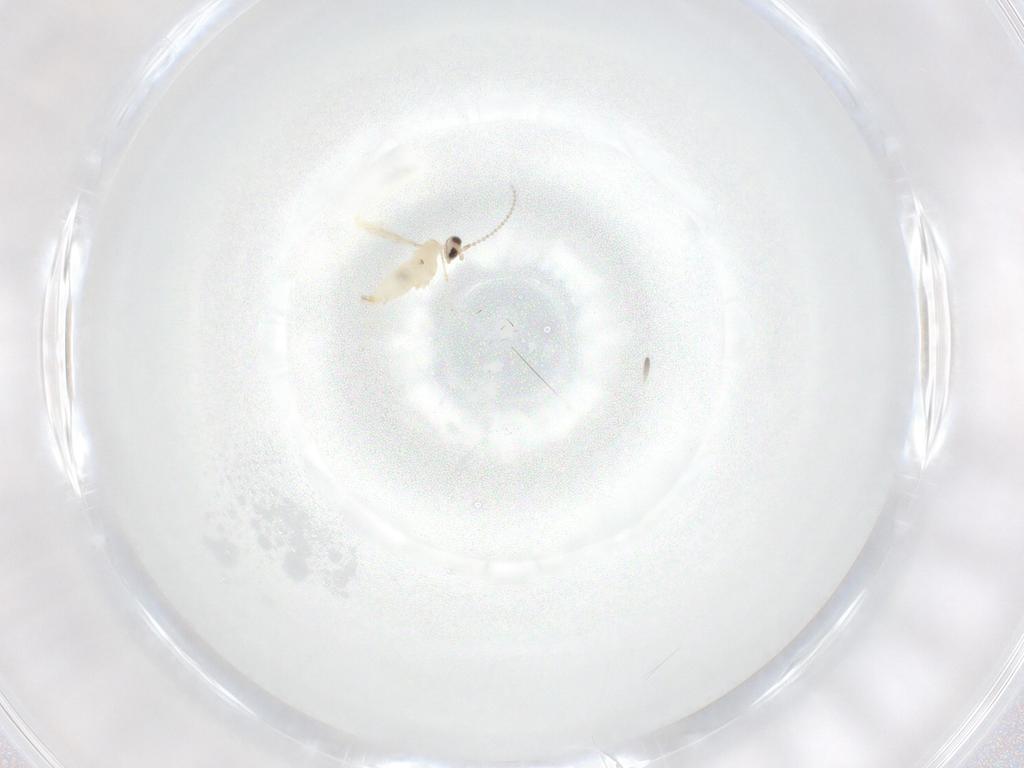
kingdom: Animalia
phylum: Arthropoda
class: Insecta
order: Diptera
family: Cecidomyiidae
